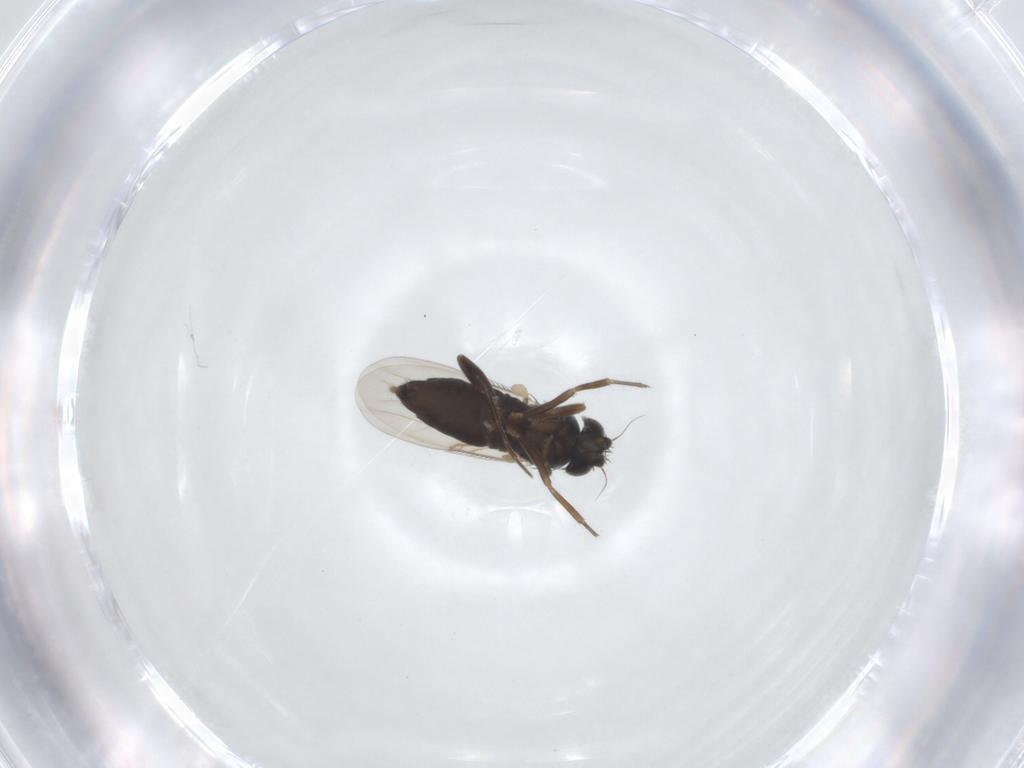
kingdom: Animalia
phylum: Arthropoda
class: Insecta
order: Diptera
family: Phoridae
